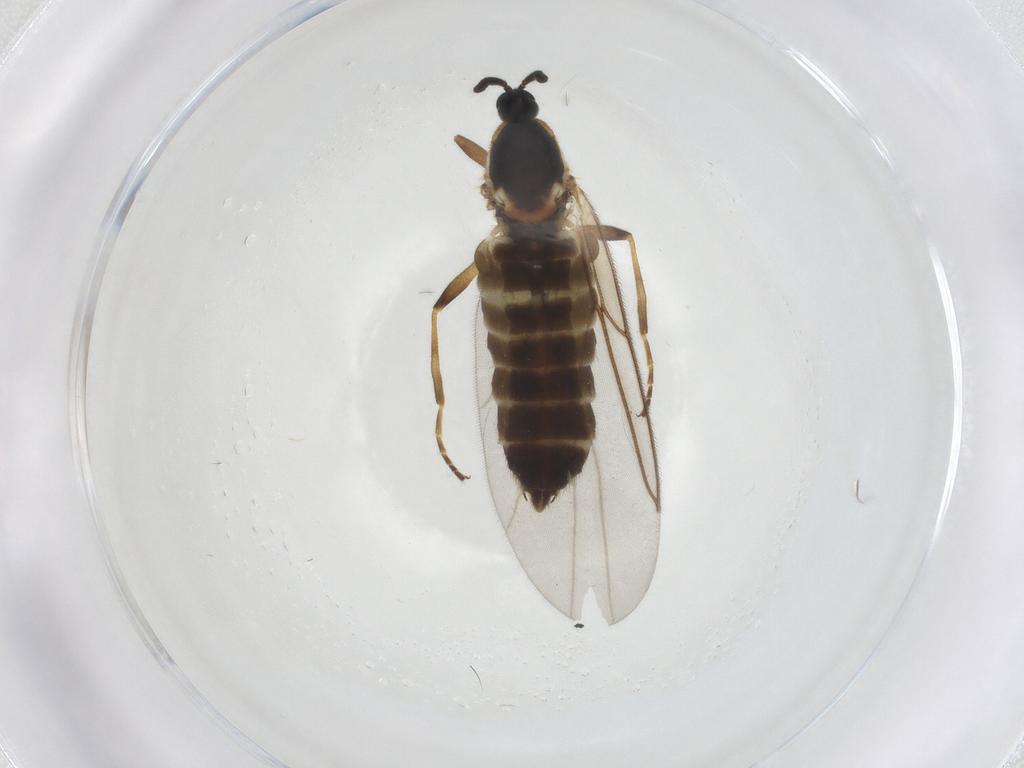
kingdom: Animalia
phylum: Arthropoda
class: Insecta
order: Diptera
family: Scatopsidae
